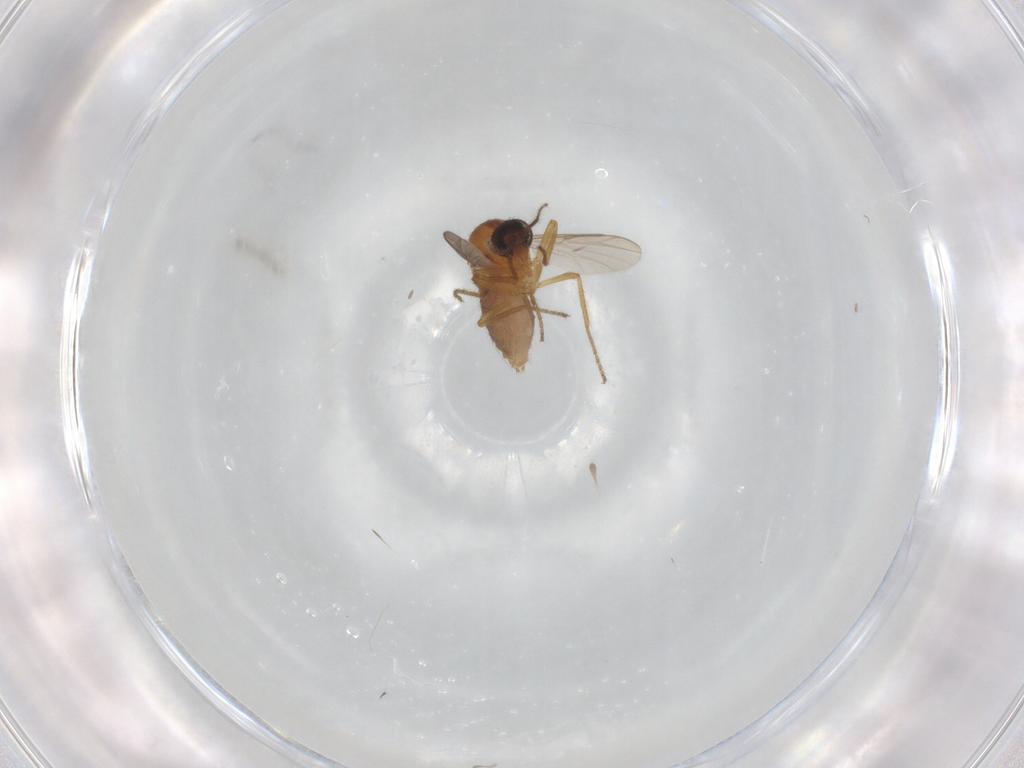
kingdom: Animalia
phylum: Arthropoda
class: Insecta
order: Diptera
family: Ceratopogonidae
